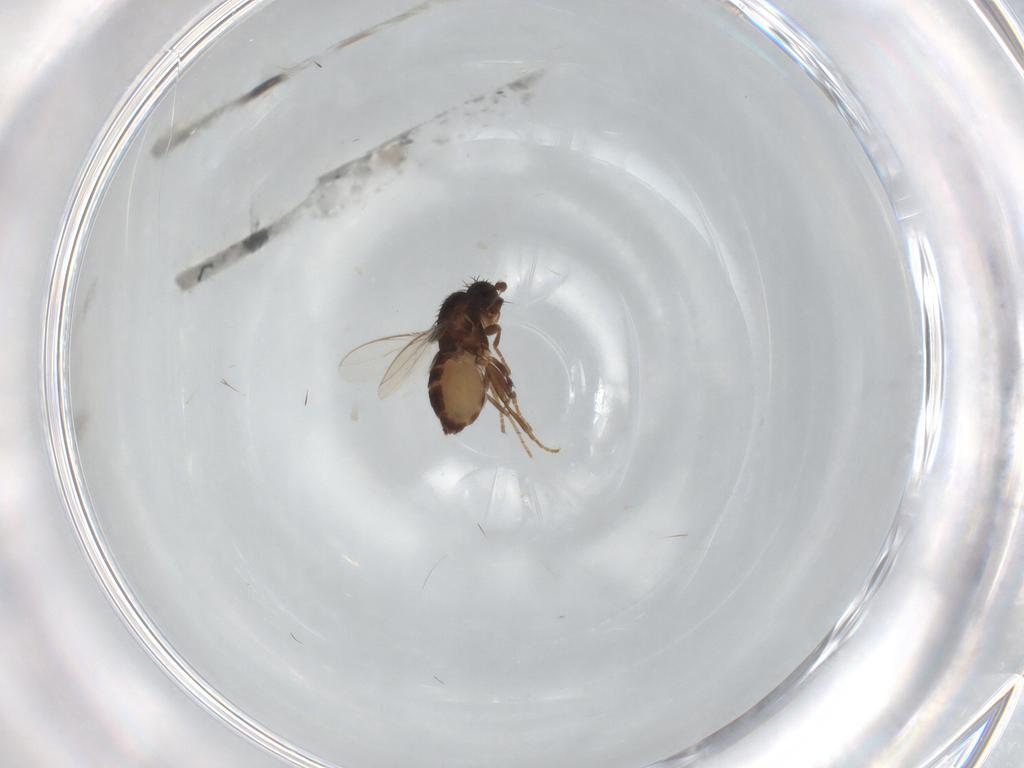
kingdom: Animalia
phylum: Arthropoda
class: Insecta
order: Diptera
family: Sphaeroceridae
